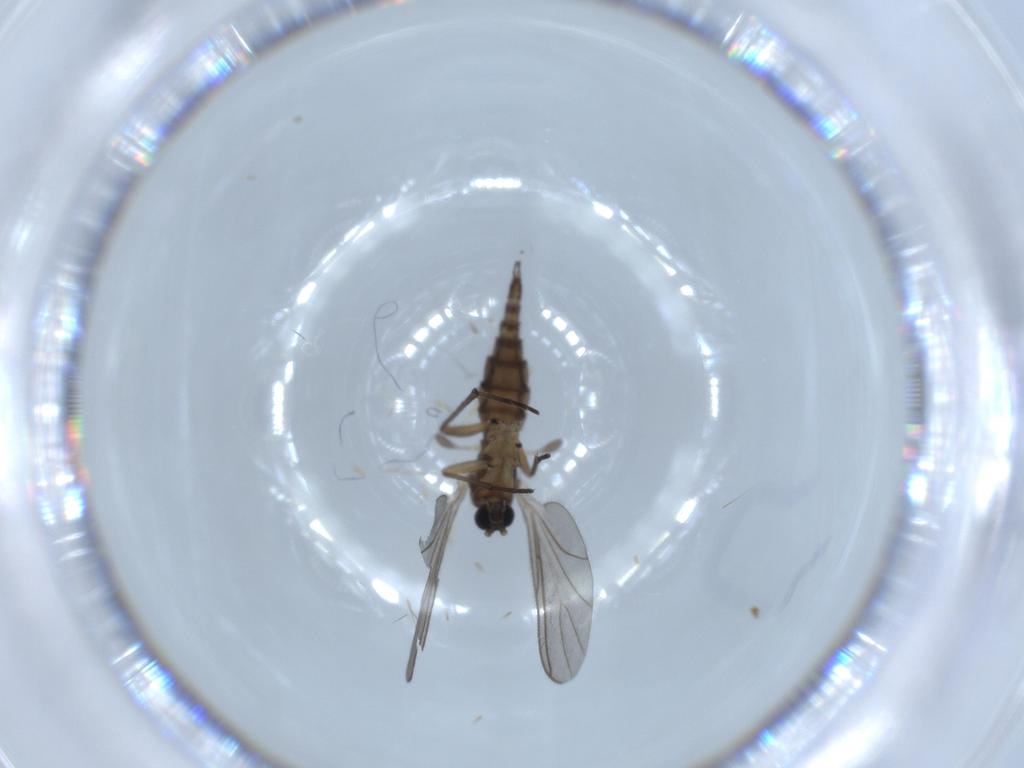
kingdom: Animalia
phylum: Arthropoda
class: Insecta
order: Diptera
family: Sciaridae
